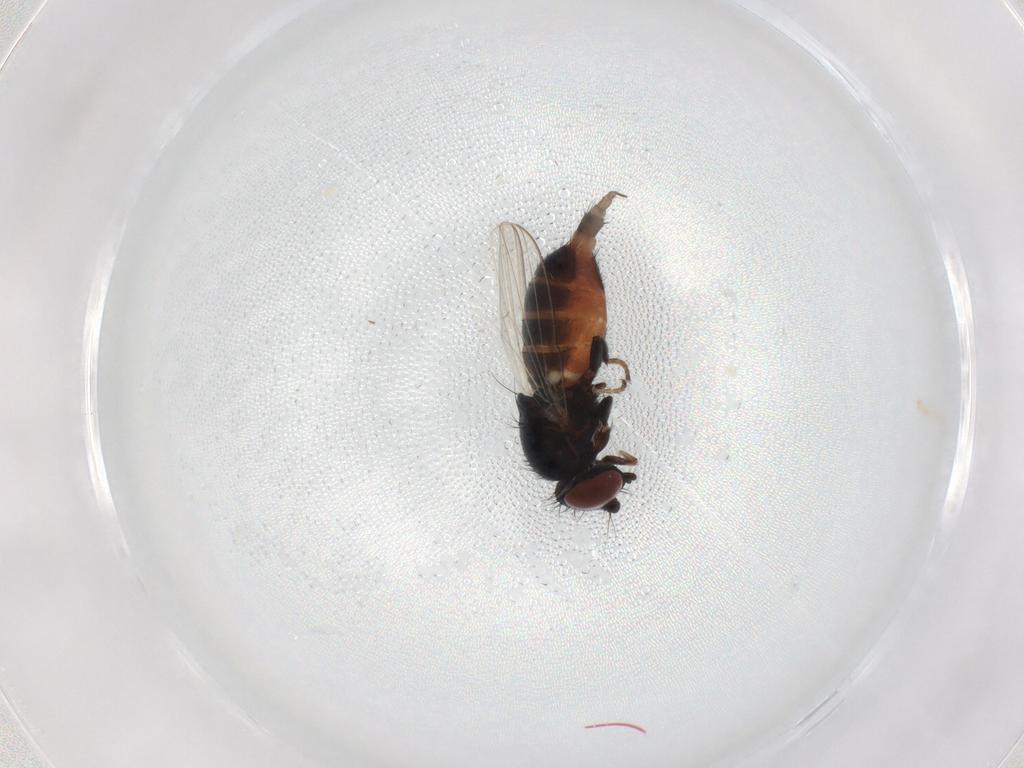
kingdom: Animalia
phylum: Arthropoda
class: Insecta
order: Diptera
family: Milichiidae
